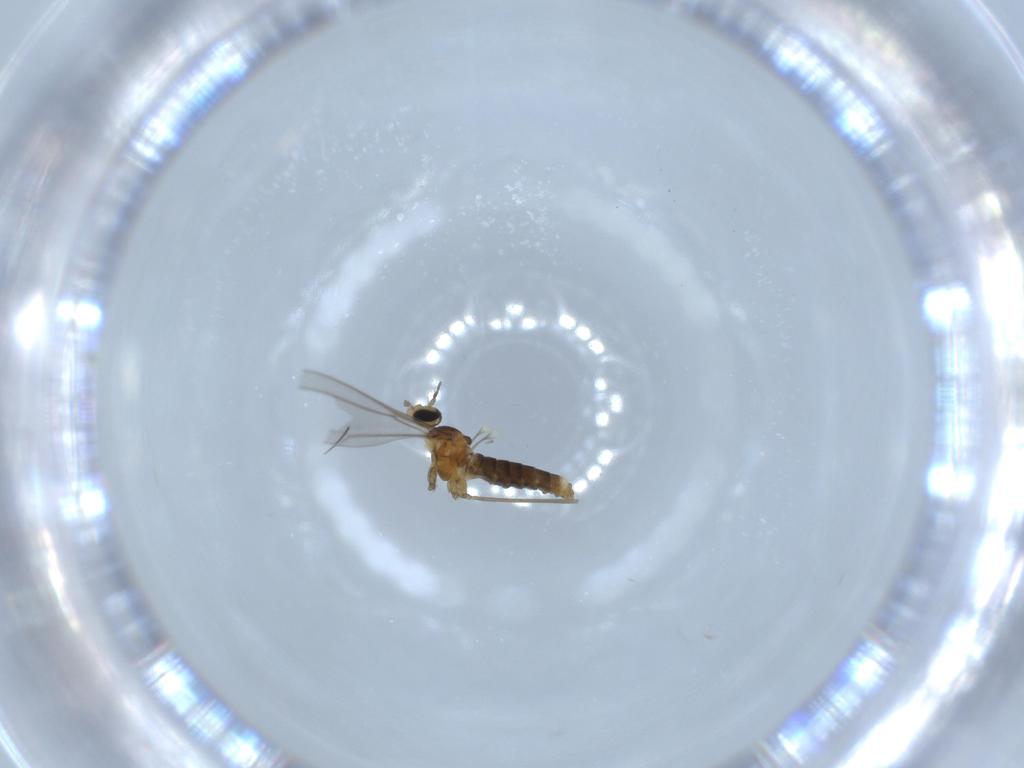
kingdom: Animalia
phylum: Arthropoda
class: Insecta
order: Diptera
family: Cecidomyiidae
